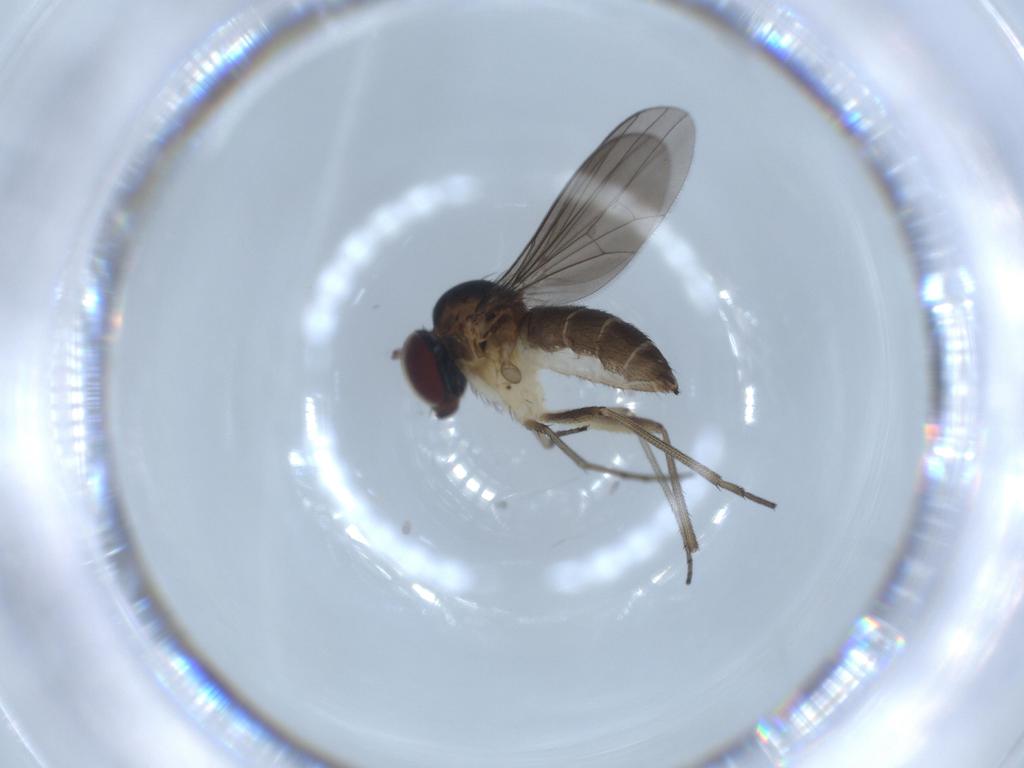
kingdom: Animalia
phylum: Arthropoda
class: Insecta
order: Diptera
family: Dolichopodidae
